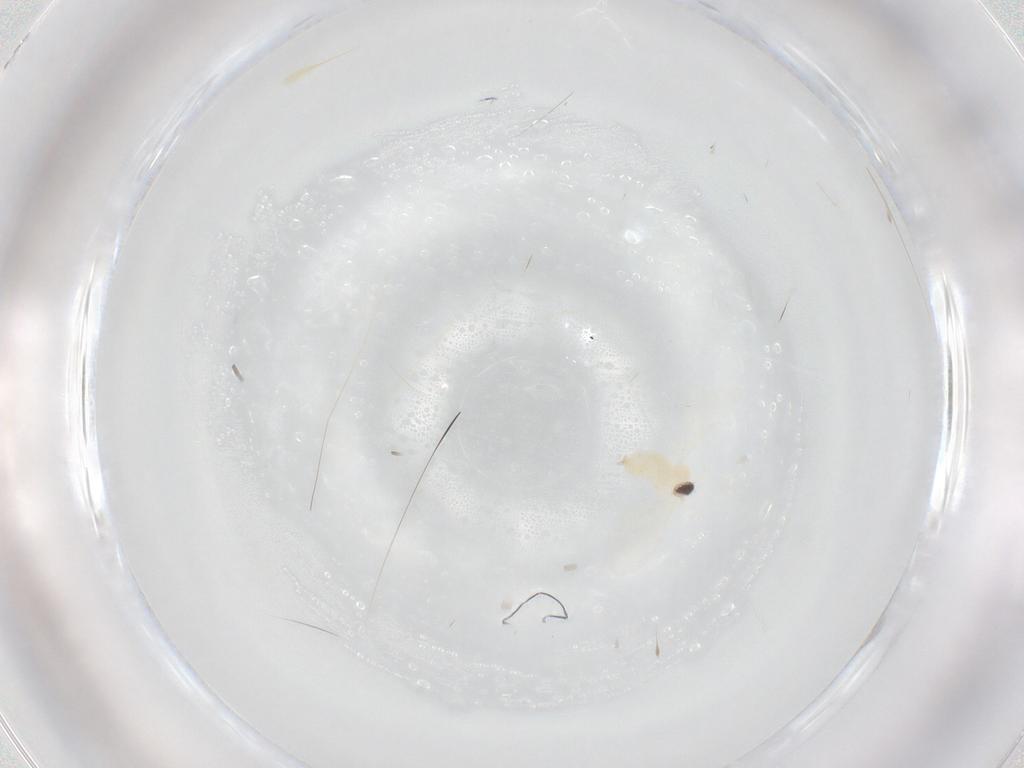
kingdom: Animalia
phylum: Arthropoda
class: Insecta
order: Diptera
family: Cecidomyiidae
